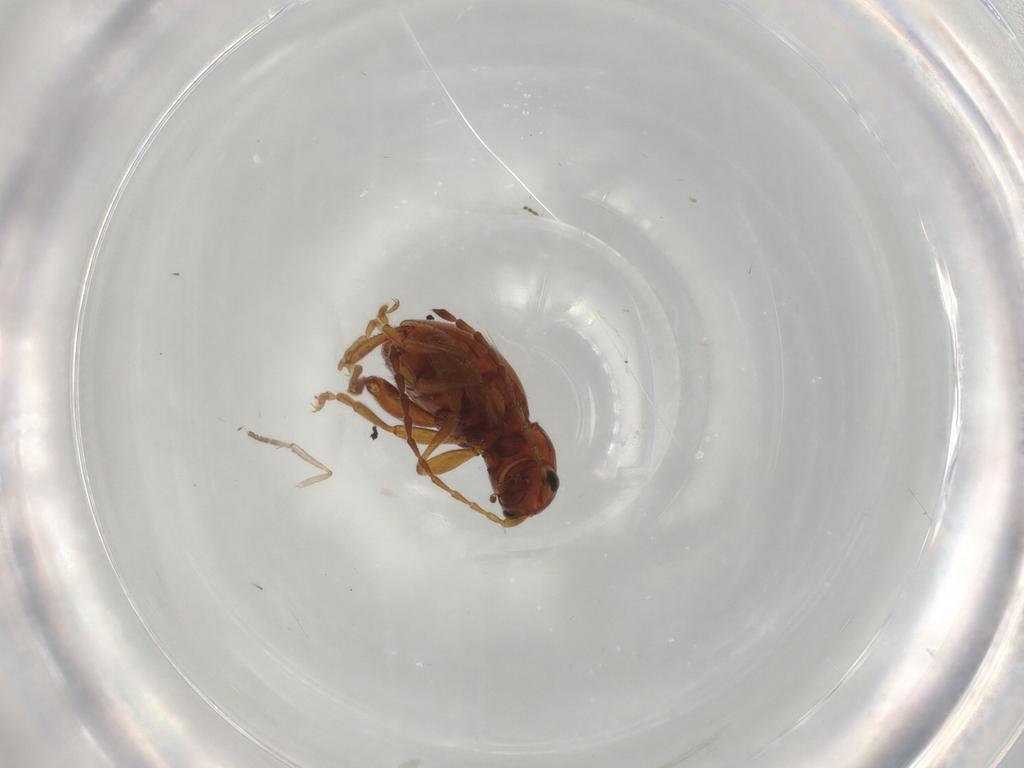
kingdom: Animalia
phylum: Arthropoda
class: Insecta
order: Coleoptera
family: Chrysomelidae
